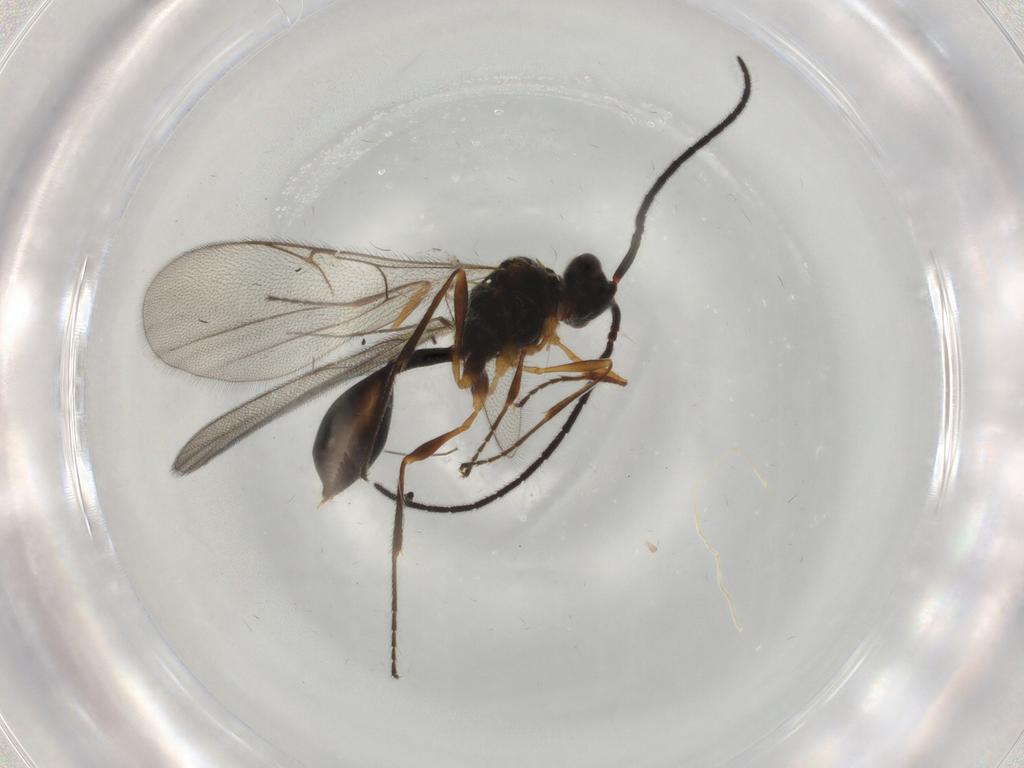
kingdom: Animalia
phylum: Arthropoda
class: Insecta
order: Hymenoptera
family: Diapriidae
